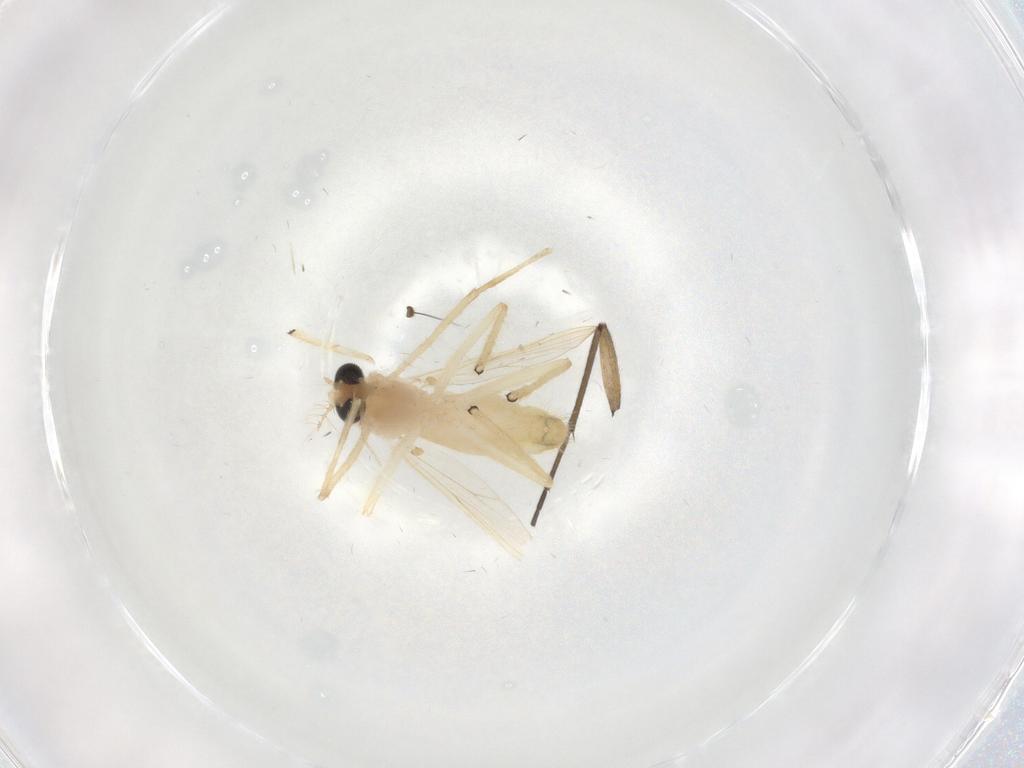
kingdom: Animalia
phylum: Arthropoda
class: Insecta
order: Diptera
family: Chironomidae
